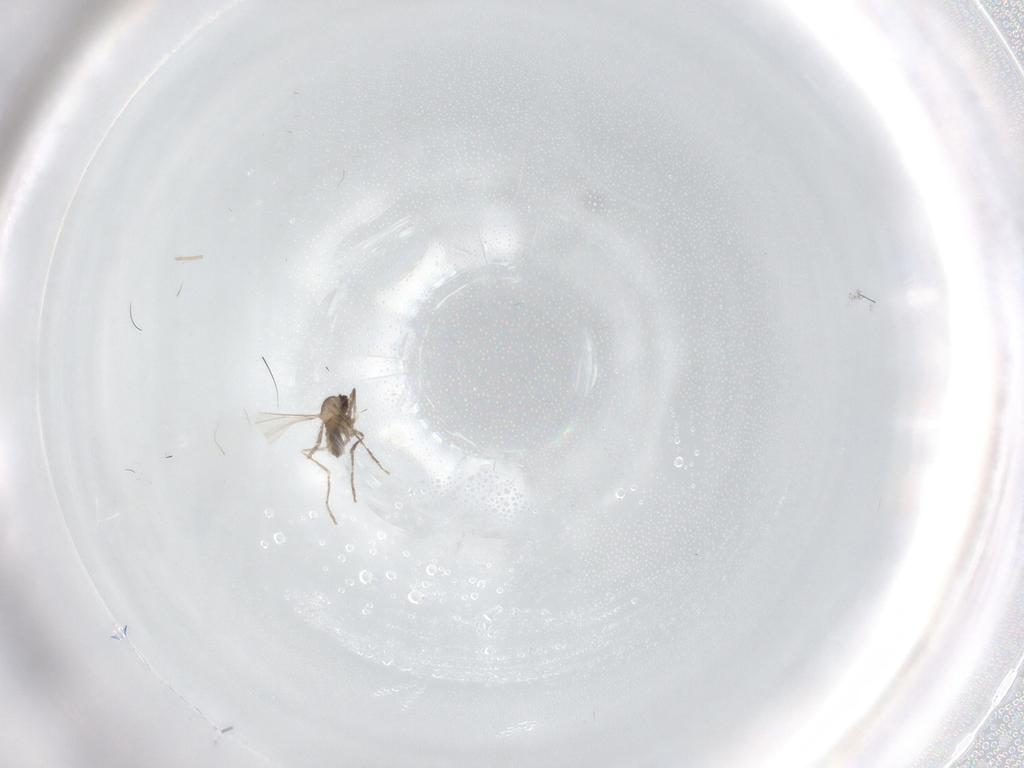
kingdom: Animalia
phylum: Arthropoda
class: Insecta
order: Diptera
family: Cecidomyiidae
